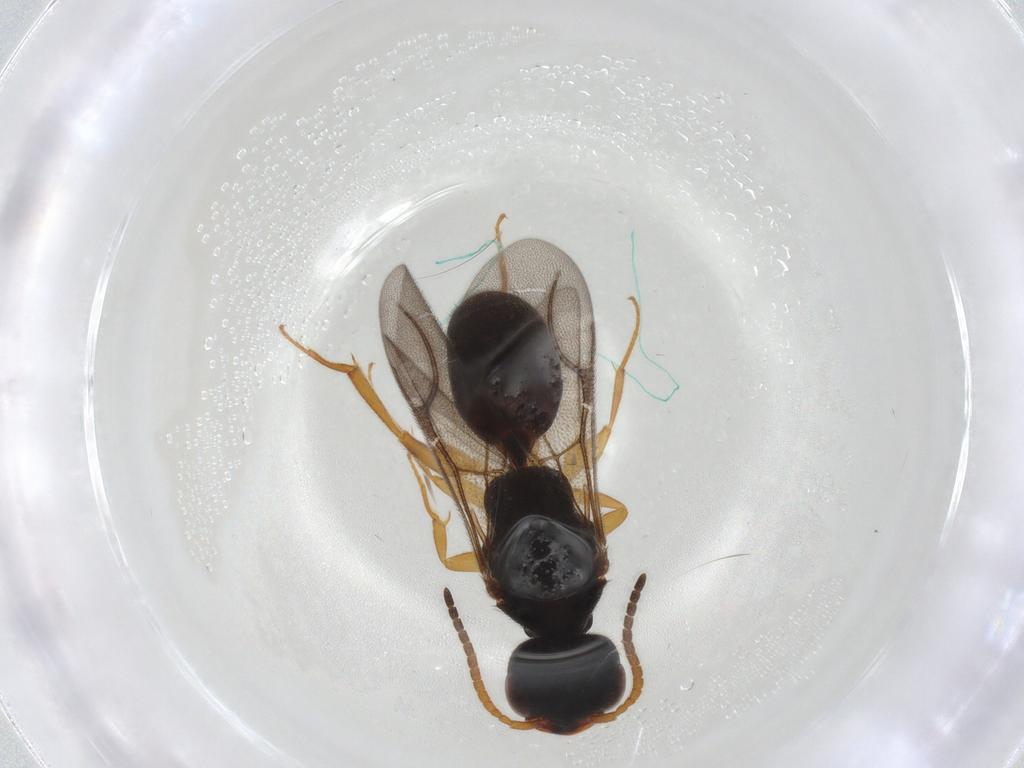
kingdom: Animalia
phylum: Arthropoda
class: Insecta
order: Hymenoptera
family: Bethylidae
